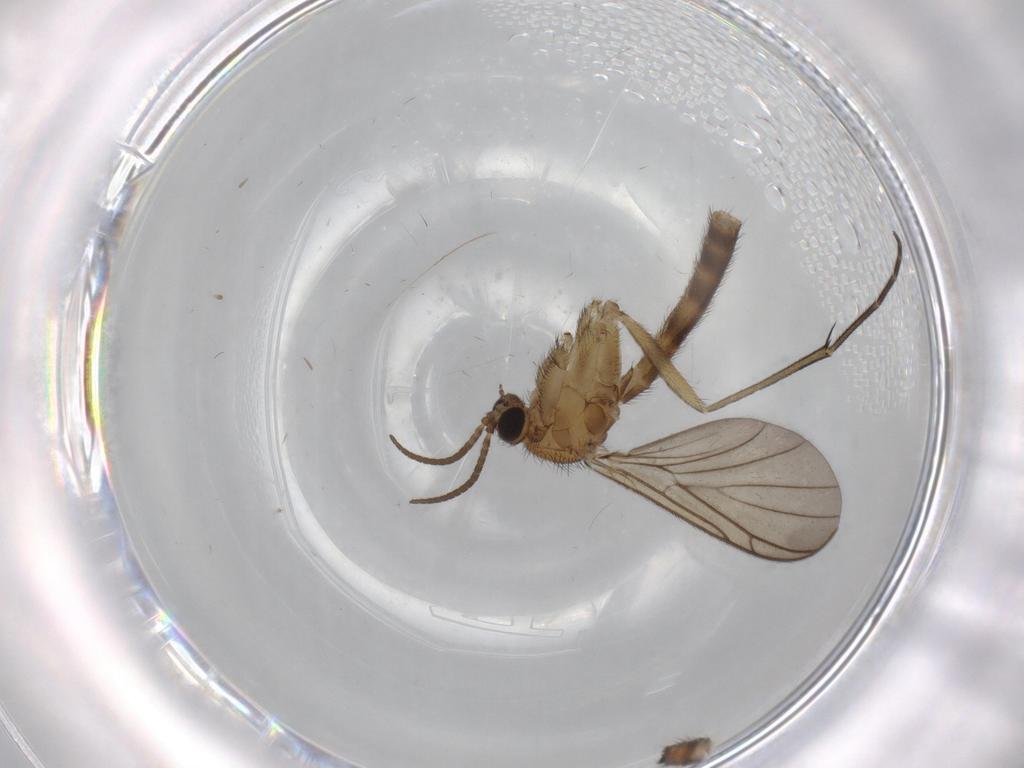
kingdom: Animalia
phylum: Arthropoda
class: Insecta
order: Diptera
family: Keroplatidae
